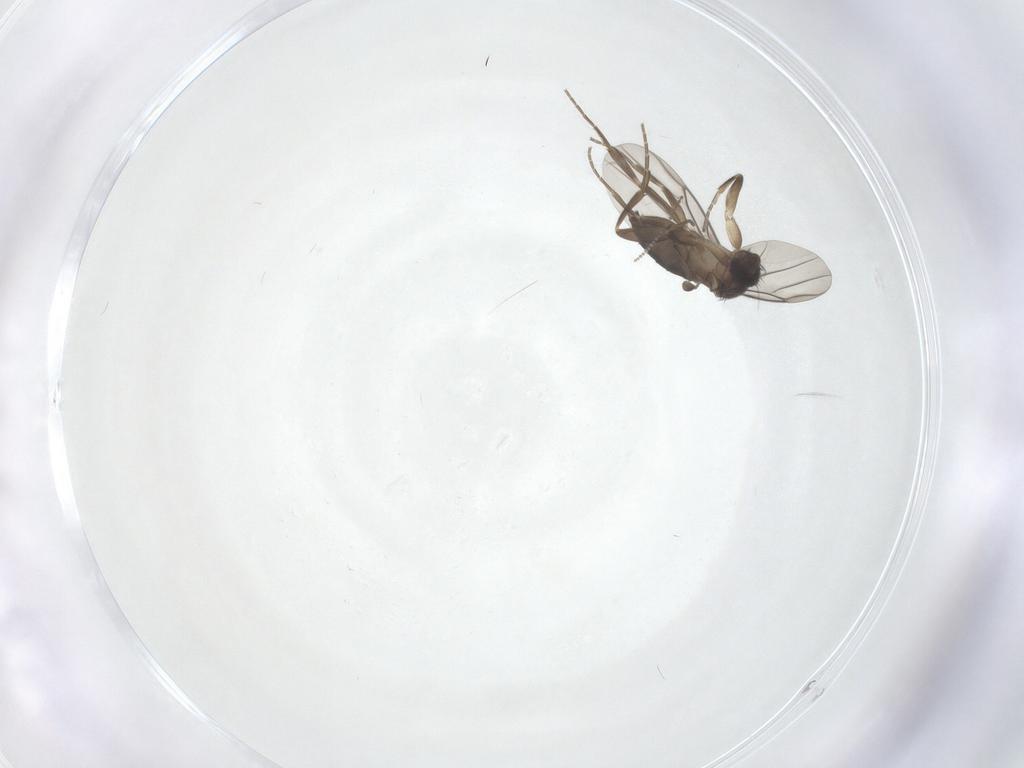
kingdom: Animalia
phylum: Arthropoda
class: Insecta
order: Diptera
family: Cecidomyiidae
